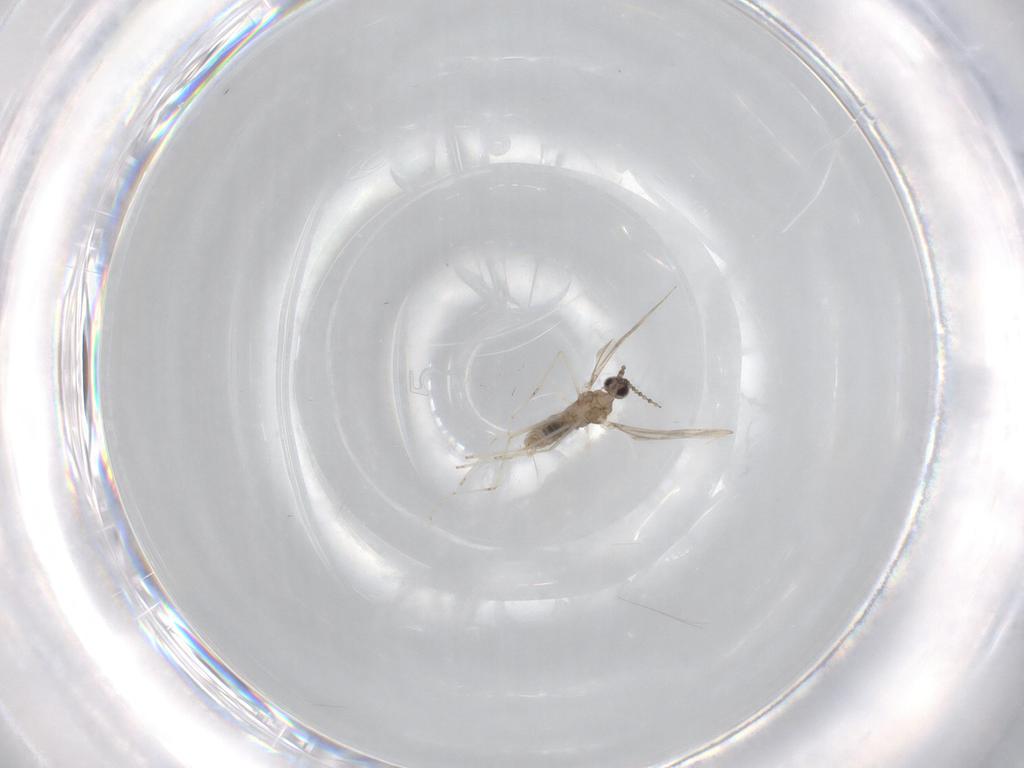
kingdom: Animalia
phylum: Arthropoda
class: Insecta
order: Diptera
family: Cecidomyiidae
